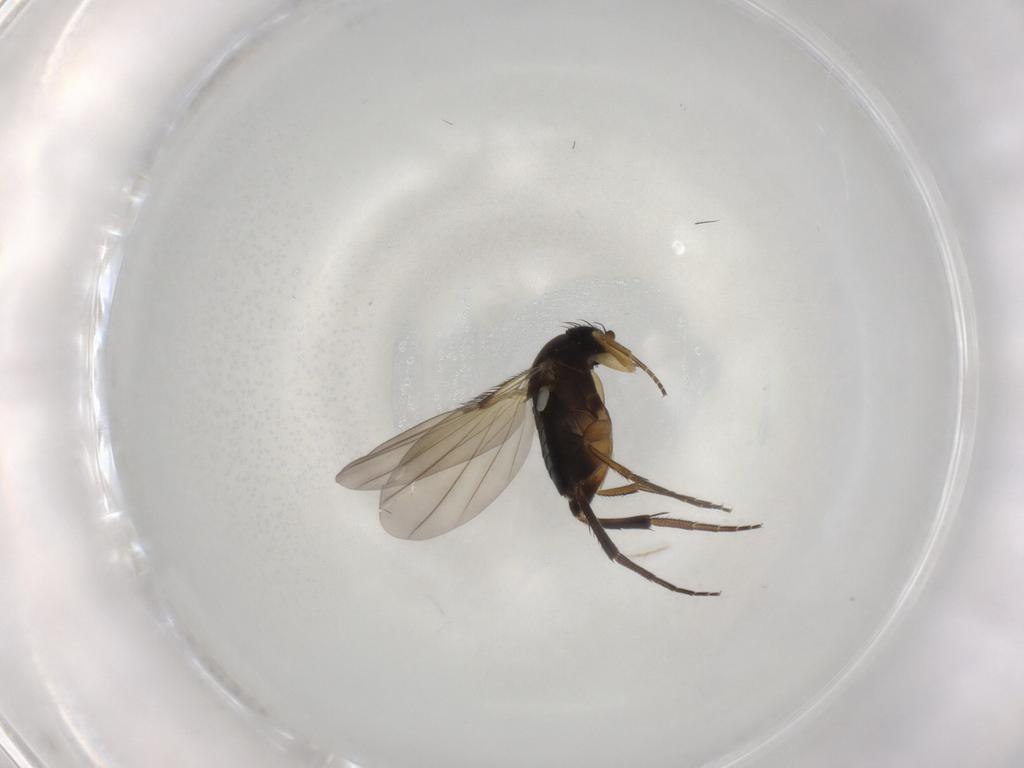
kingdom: Animalia
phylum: Arthropoda
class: Insecta
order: Diptera
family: Phoridae
